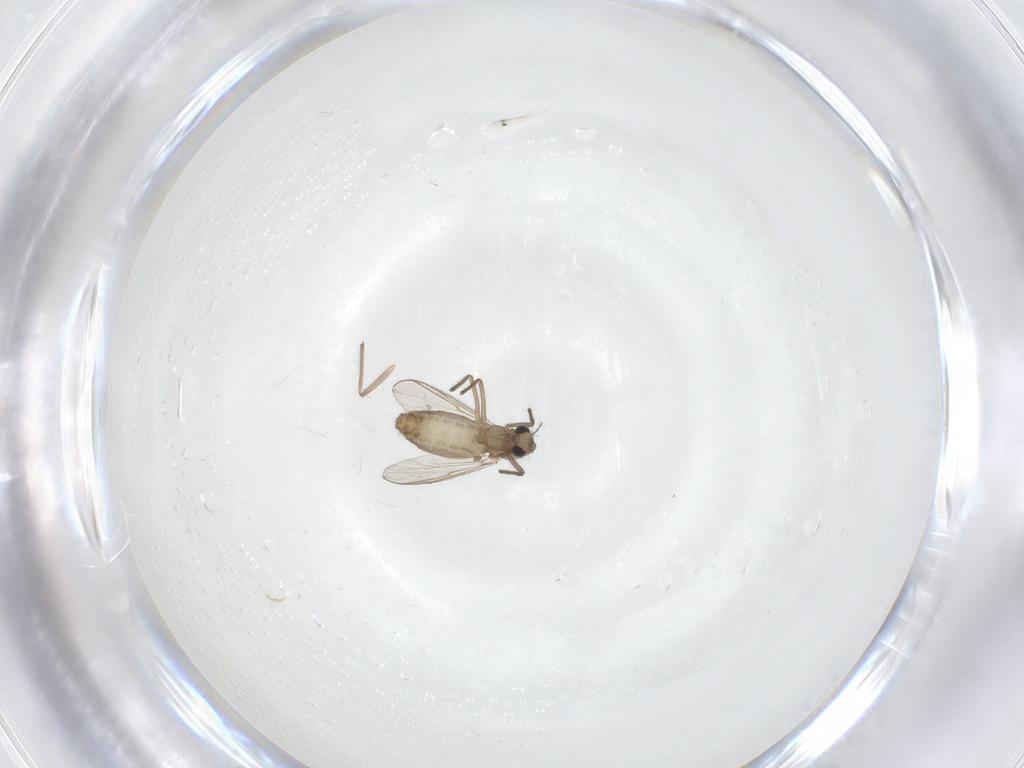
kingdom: Animalia
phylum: Arthropoda
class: Insecta
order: Diptera
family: Chironomidae
